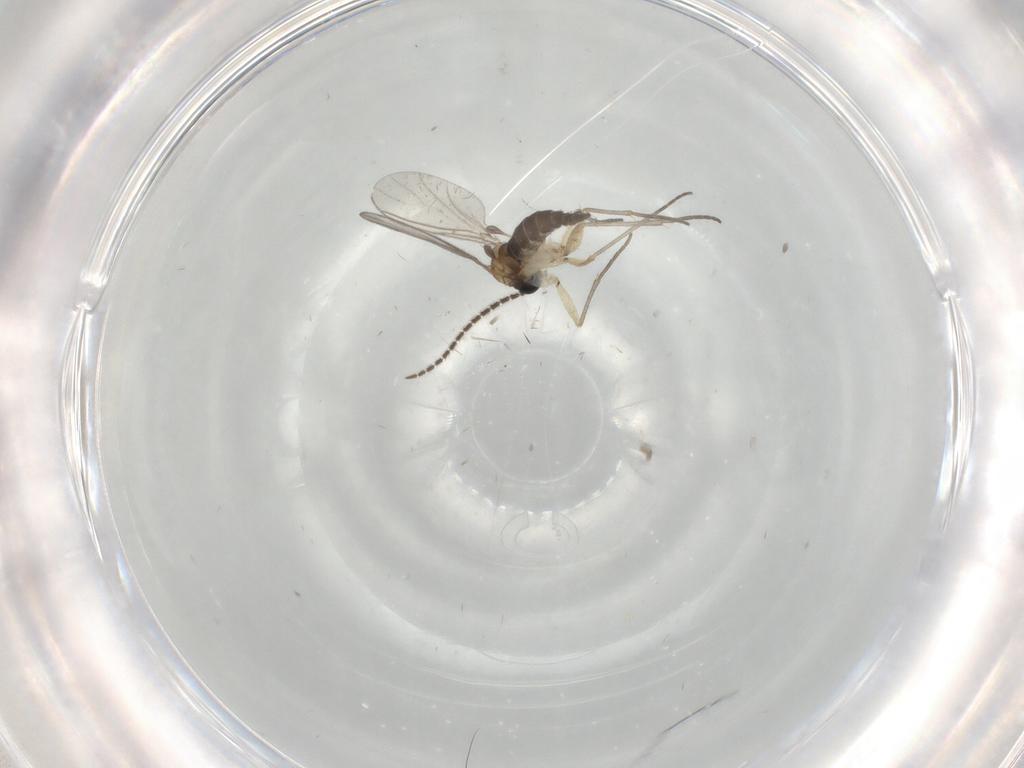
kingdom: Animalia
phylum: Arthropoda
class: Insecta
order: Diptera
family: Sciaridae
